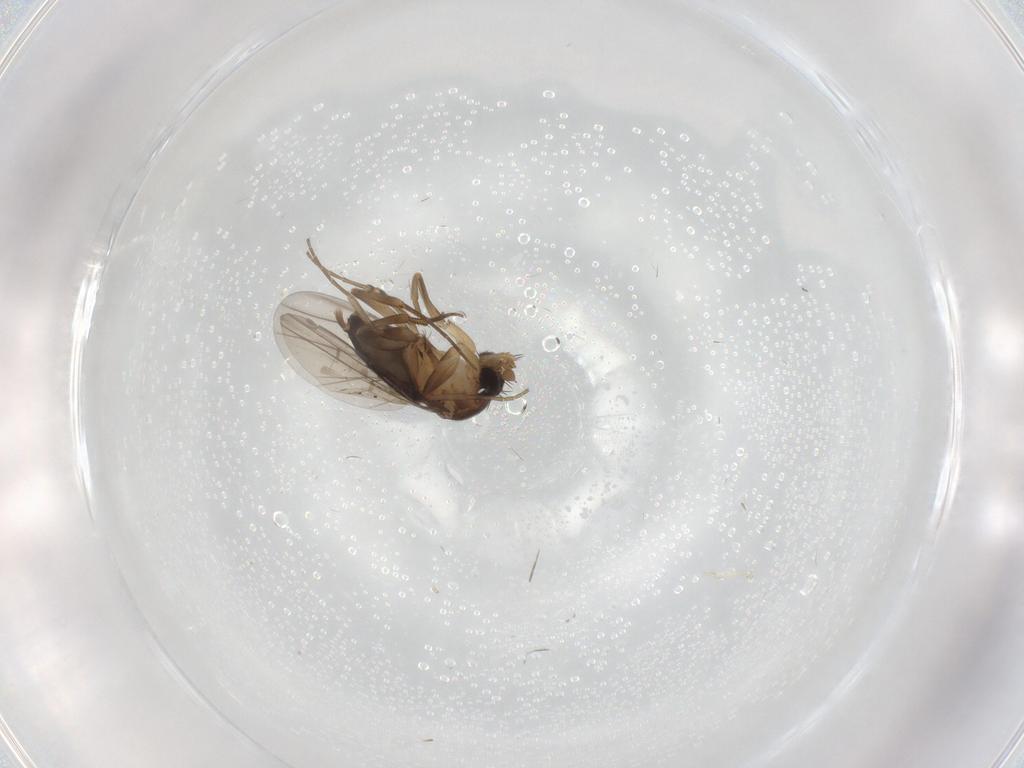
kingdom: Animalia
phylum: Arthropoda
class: Insecta
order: Diptera
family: Phoridae
